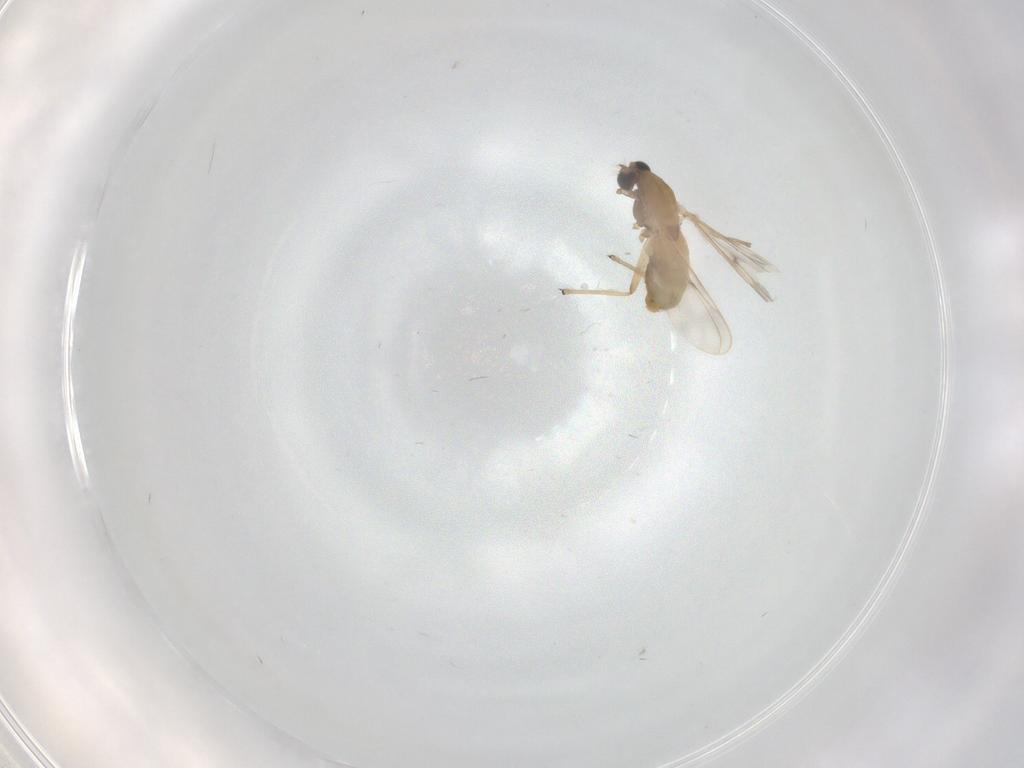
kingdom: Animalia
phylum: Arthropoda
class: Insecta
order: Diptera
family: Chironomidae
